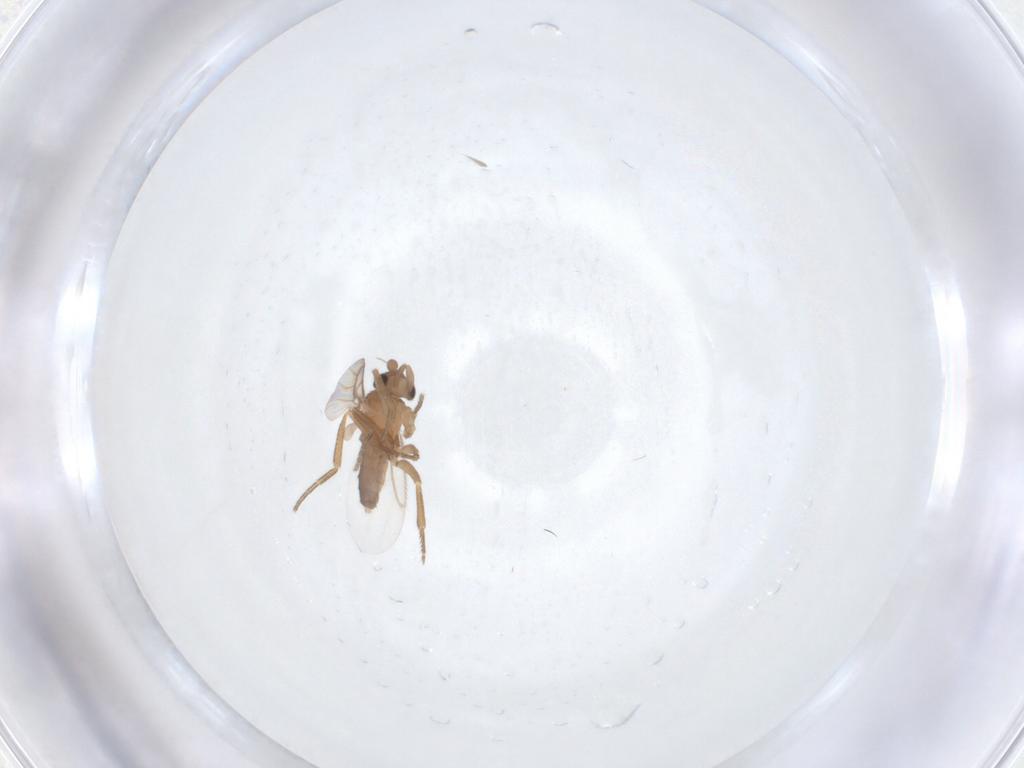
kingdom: Animalia
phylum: Arthropoda
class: Insecta
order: Diptera
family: Phoridae
